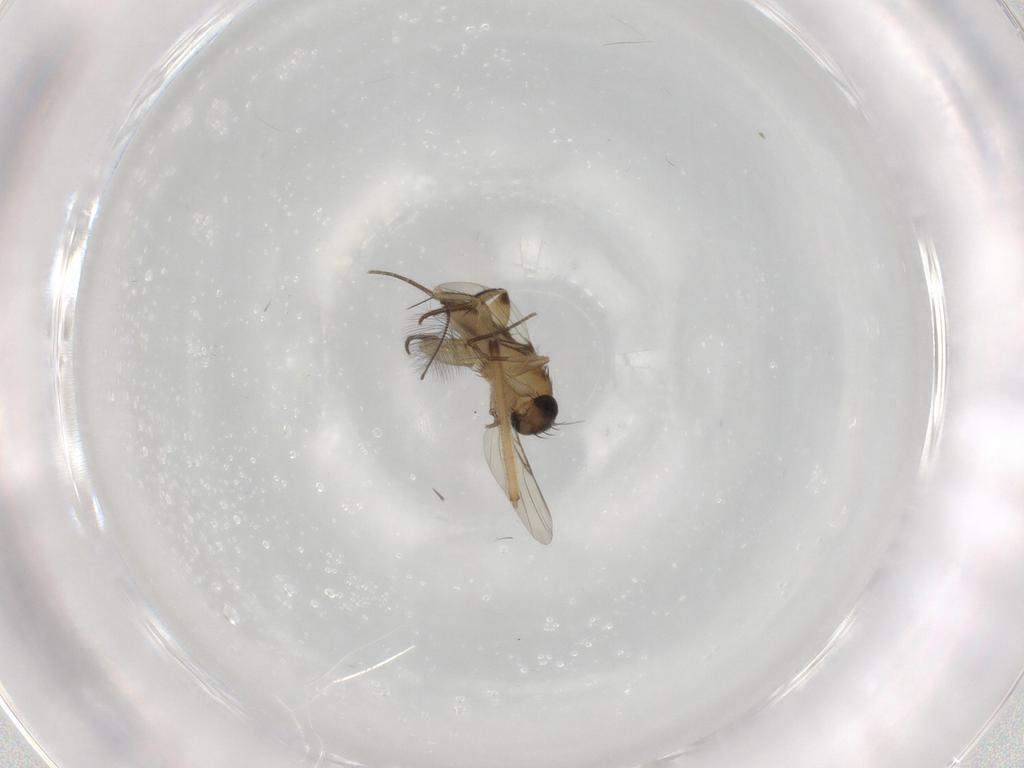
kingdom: Animalia
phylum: Arthropoda
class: Insecta
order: Diptera
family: Phoridae
